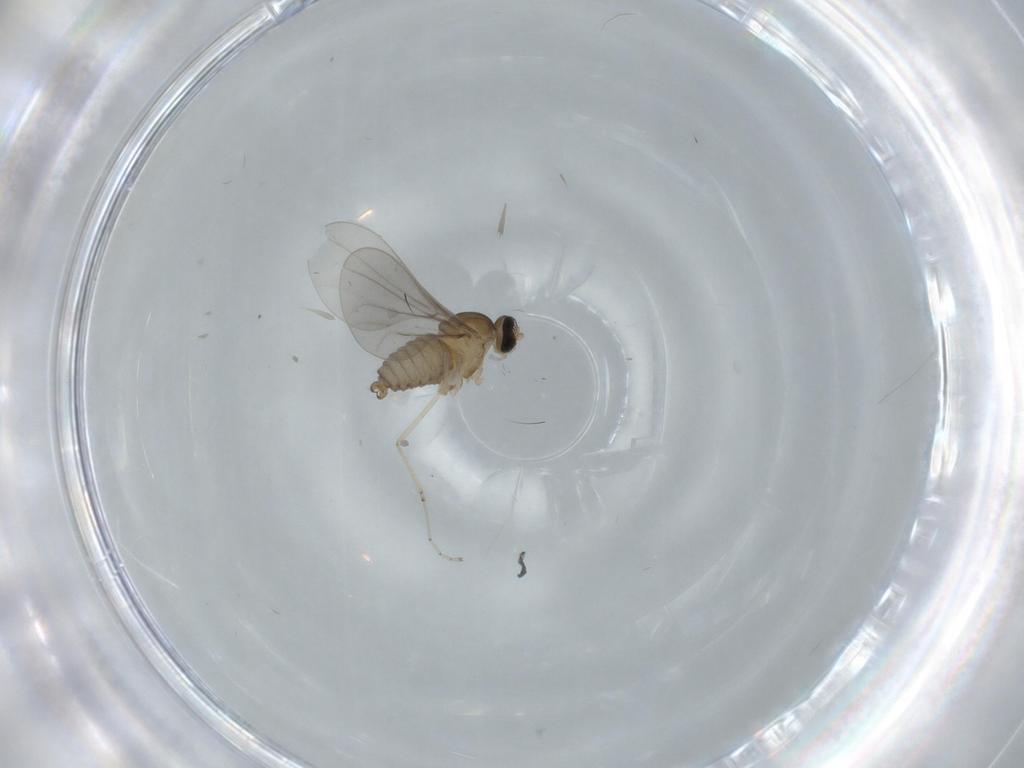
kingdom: Animalia
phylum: Arthropoda
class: Insecta
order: Diptera
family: Cecidomyiidae
